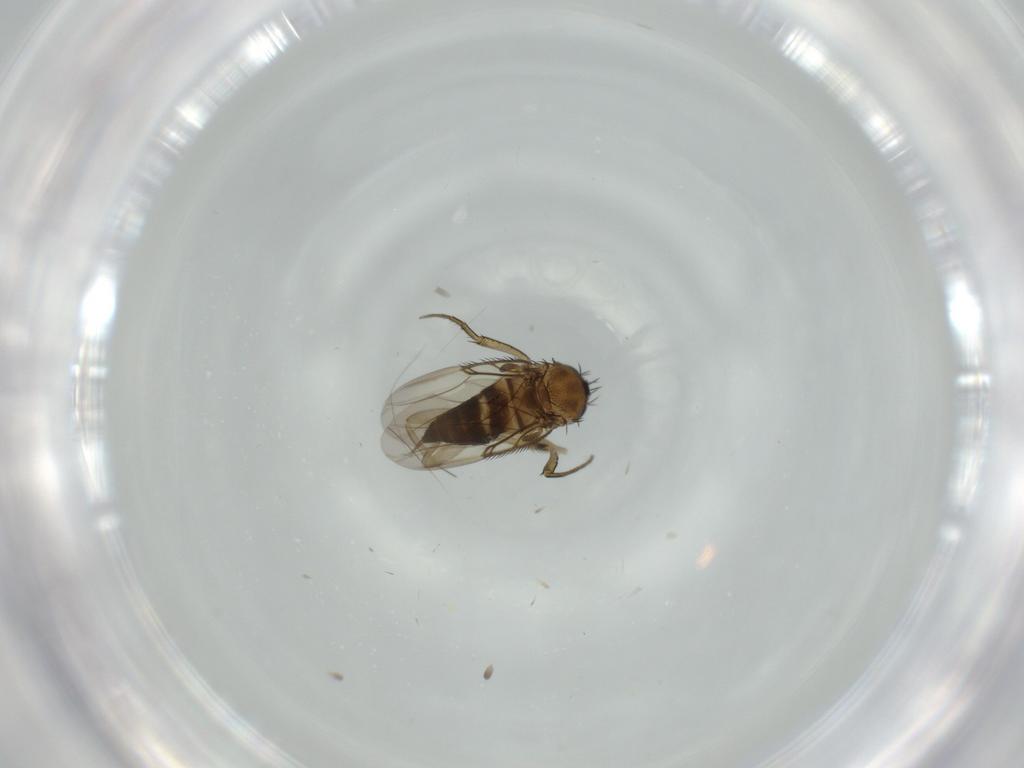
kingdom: Animalia
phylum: Arthropoda
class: Insecta
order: Diptera
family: Phoridae
